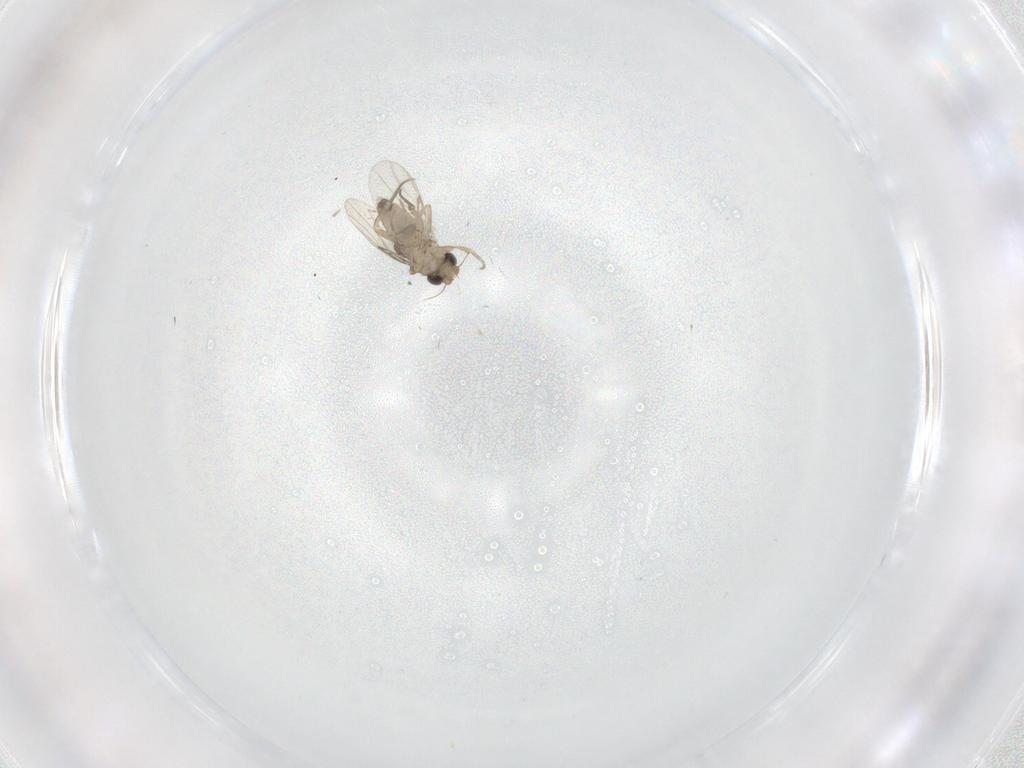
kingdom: Animalia
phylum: Arthropoda
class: Insecta
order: Diptera
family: Phoridae
